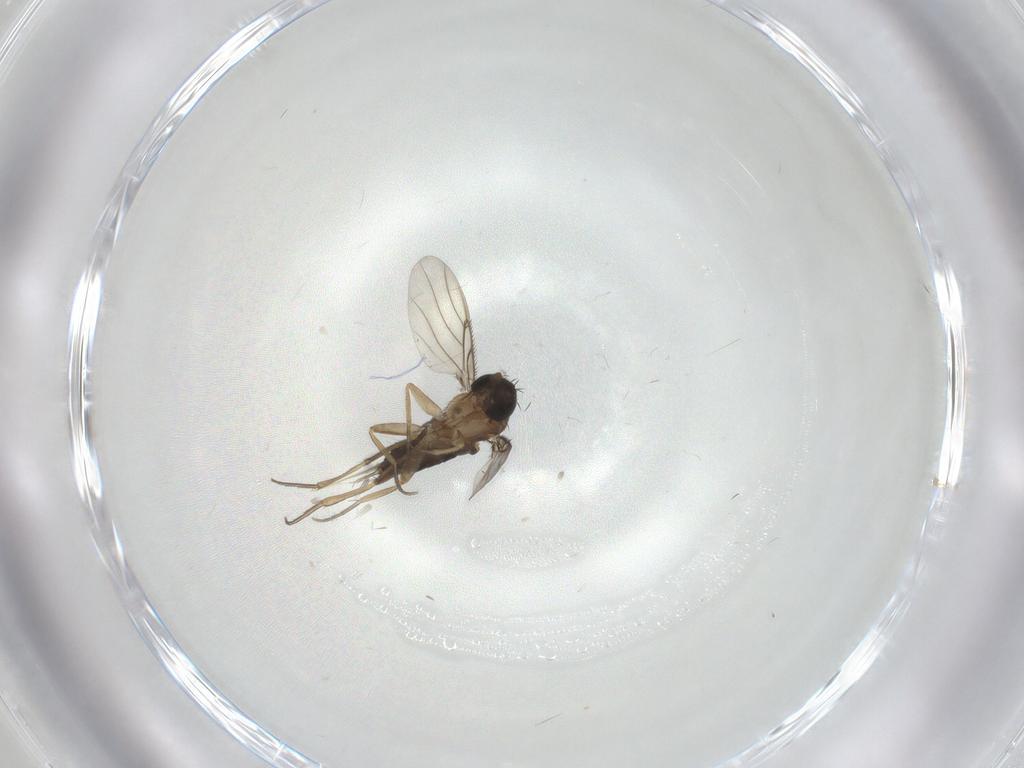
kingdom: Animalia
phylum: Arthropoda
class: Insecta
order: Diptera
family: Phoridae
